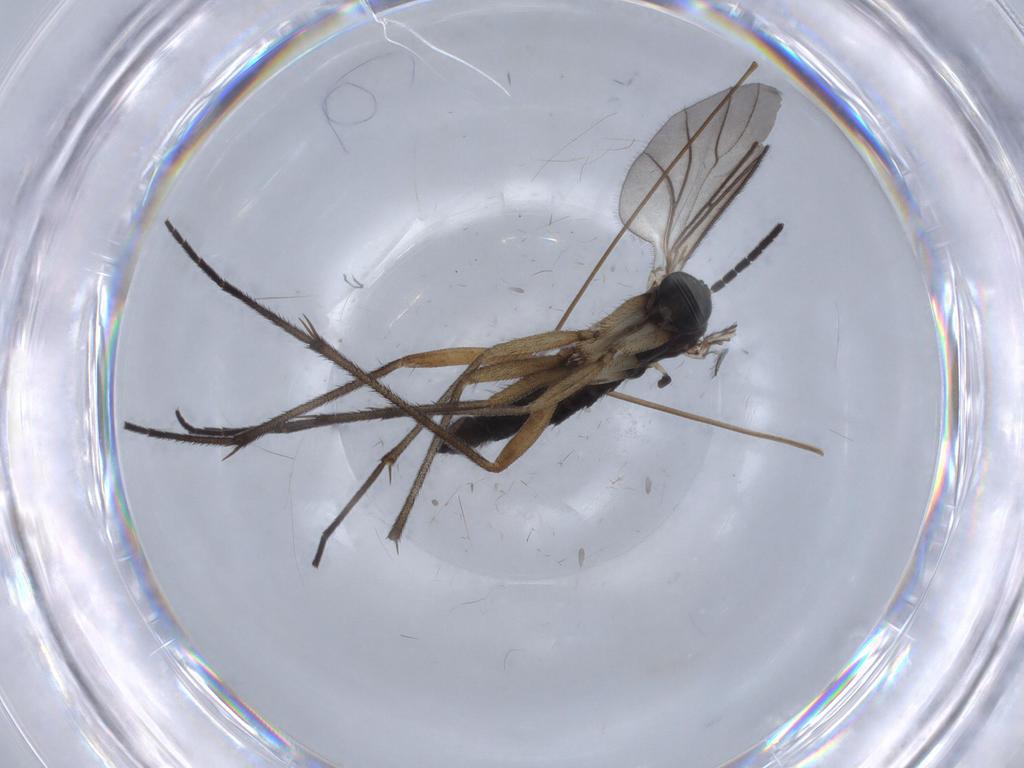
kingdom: Animalia
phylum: Arthropoda
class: Insecta
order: Diptera
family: Sciaridae
